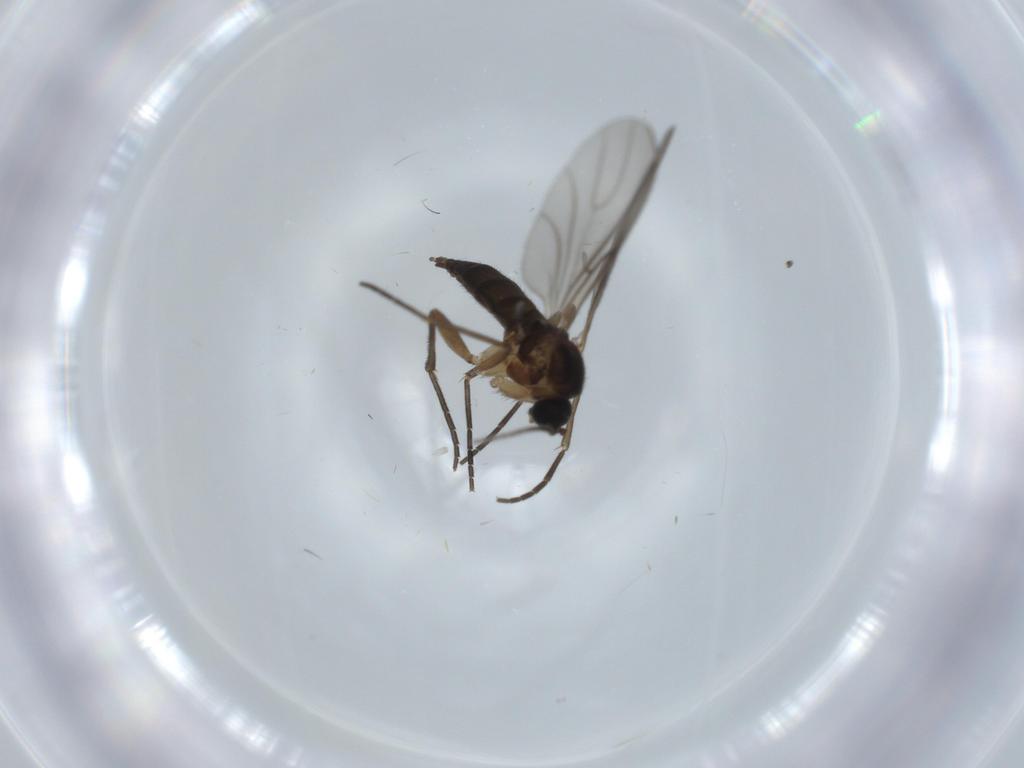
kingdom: Animalia
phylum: Arthropoda
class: Insecta
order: Diptera
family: Sciaridae
